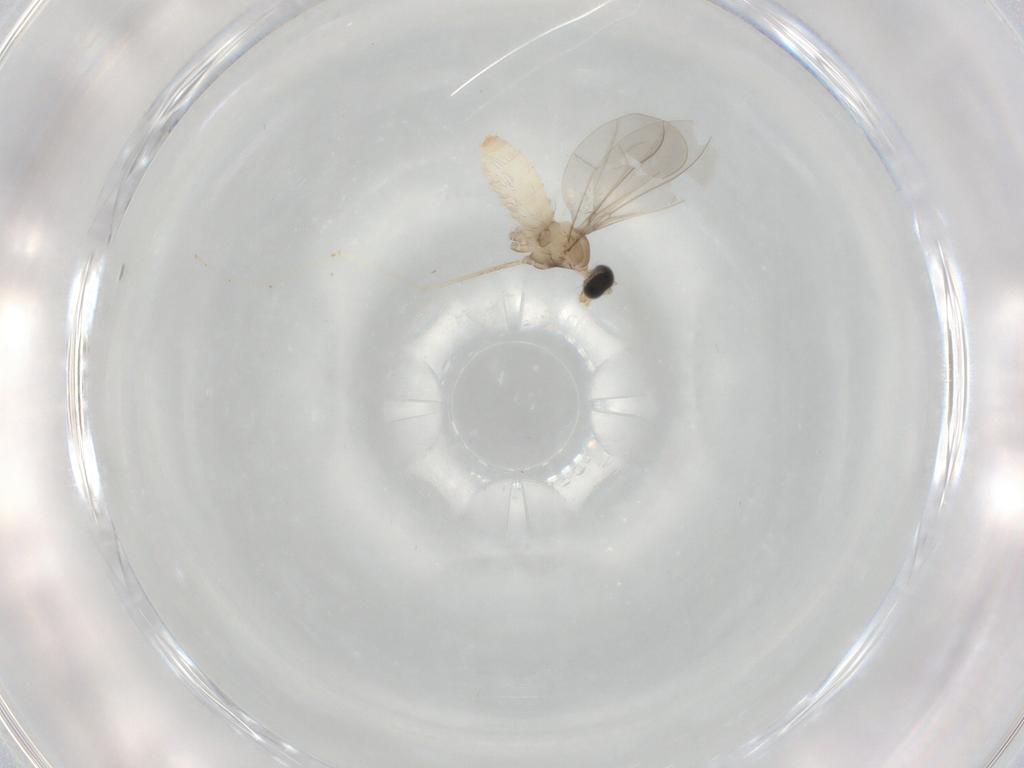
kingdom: Animalia
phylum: Arthropoda
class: Insecta
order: Diptera
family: Cecidomyiidae
